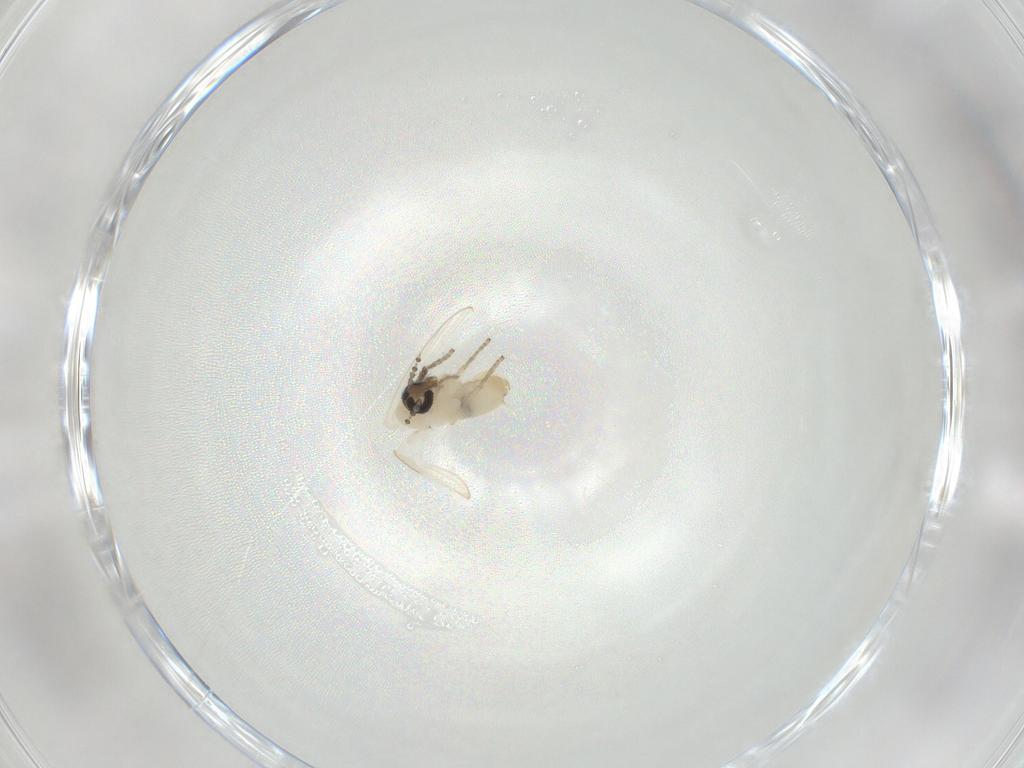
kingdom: Animalia
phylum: Arthropoda
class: Insecta
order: Diptera
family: Psychodidae
